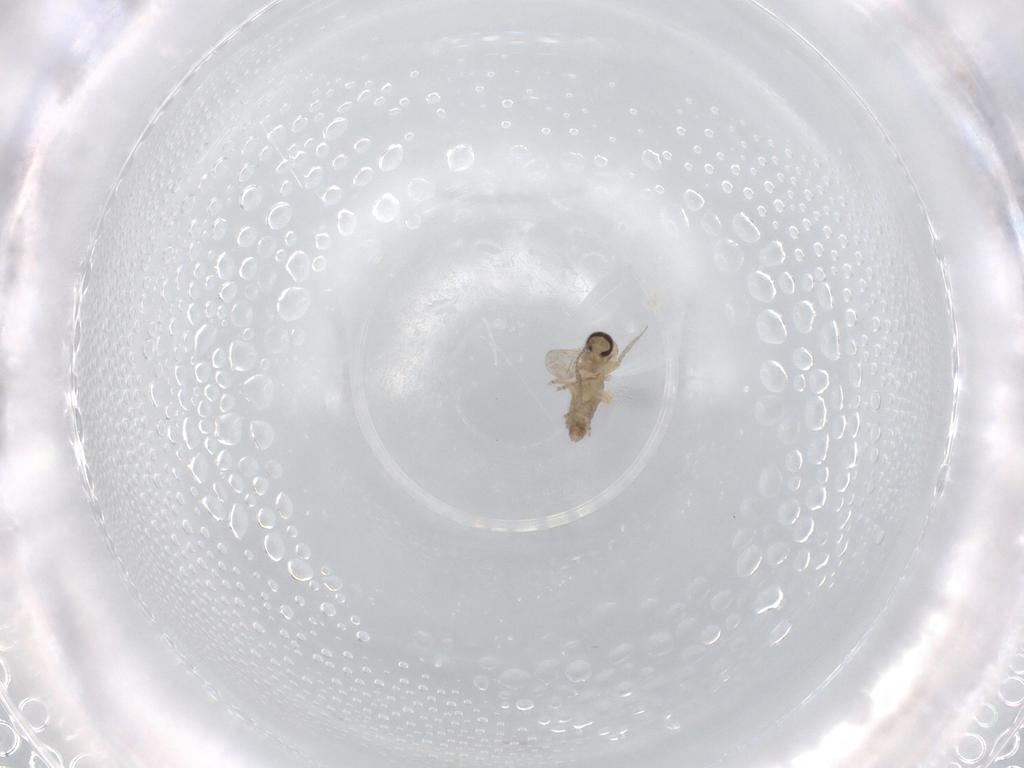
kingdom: Animalia
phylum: Arthropoda
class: Insecta
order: Diptera
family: Ceratopogonidae
